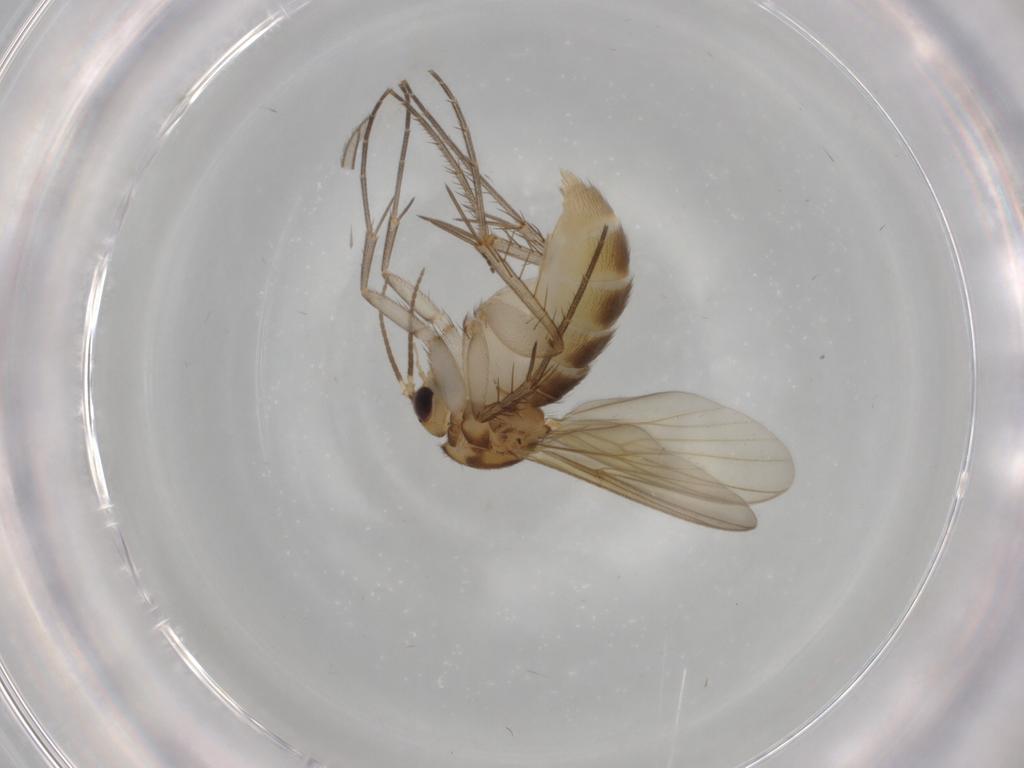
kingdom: Animalia
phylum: Arthropoda
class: Insecta
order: Diptera
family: Mycetophilidae
